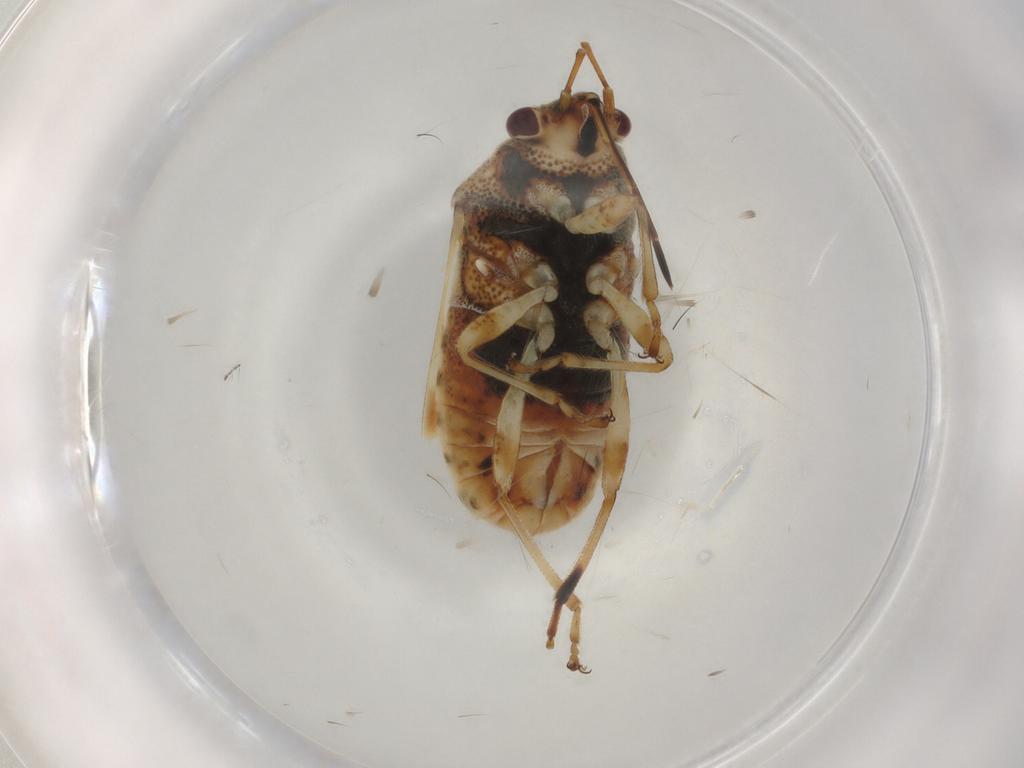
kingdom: Animalia
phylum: Arthropoda
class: Insecta
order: Hemiptera
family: Lygaeidae
